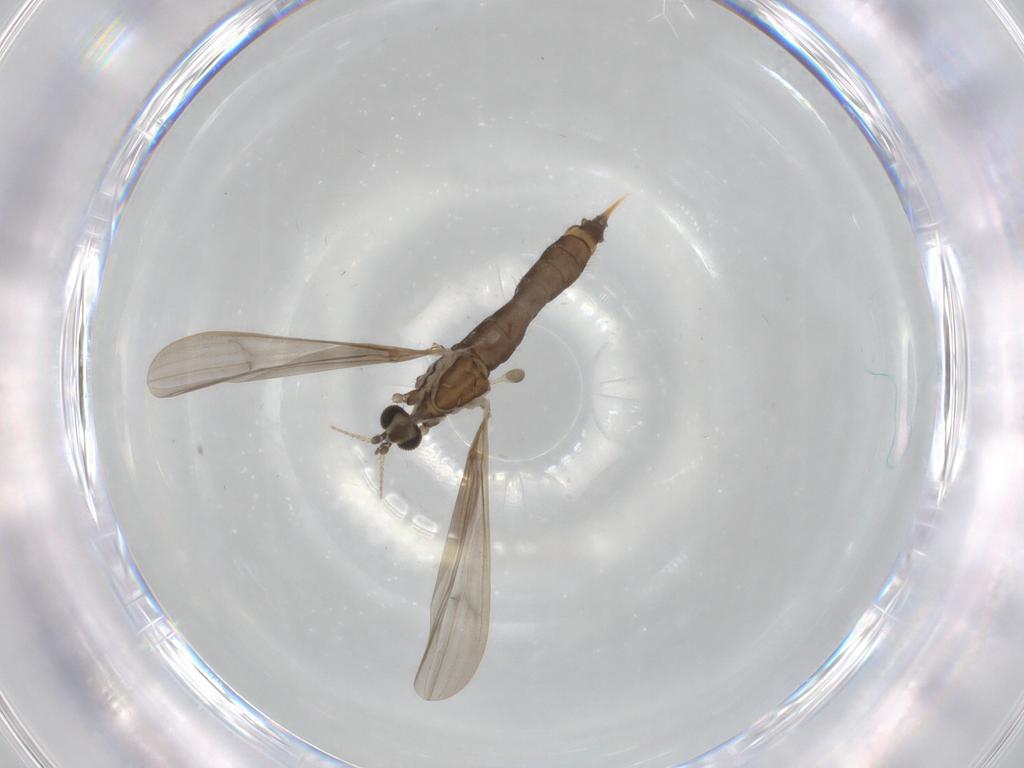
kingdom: Animalia
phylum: Arthropoda
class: Insecta
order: Diptera
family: Limoniidae
